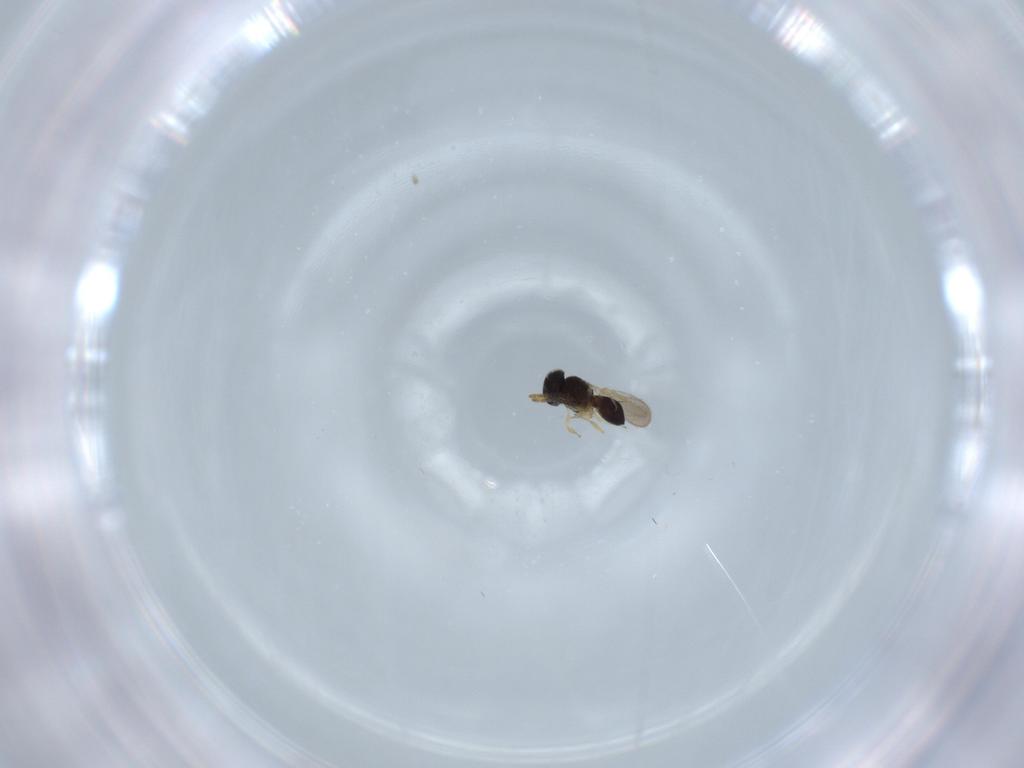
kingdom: Animalia
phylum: Arthropoda
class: Insecta
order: Hymenoptera
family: Scelionidae
